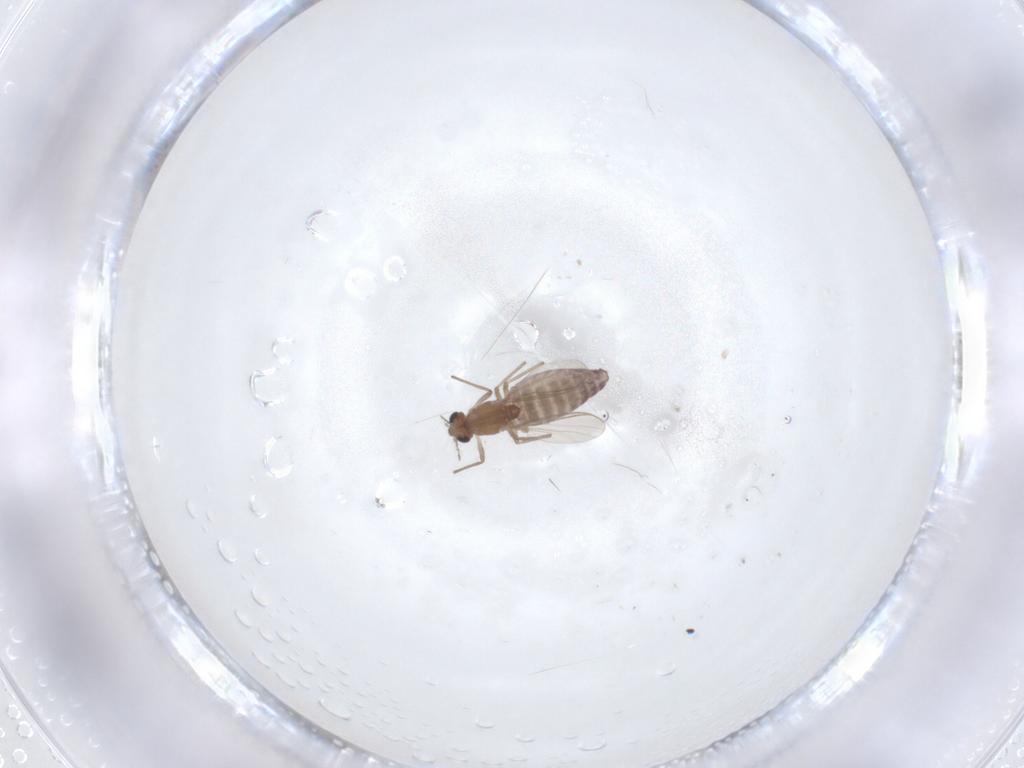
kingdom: Animalia
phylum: Arthropoda
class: Insecta
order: Diptera
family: Chironomidae
